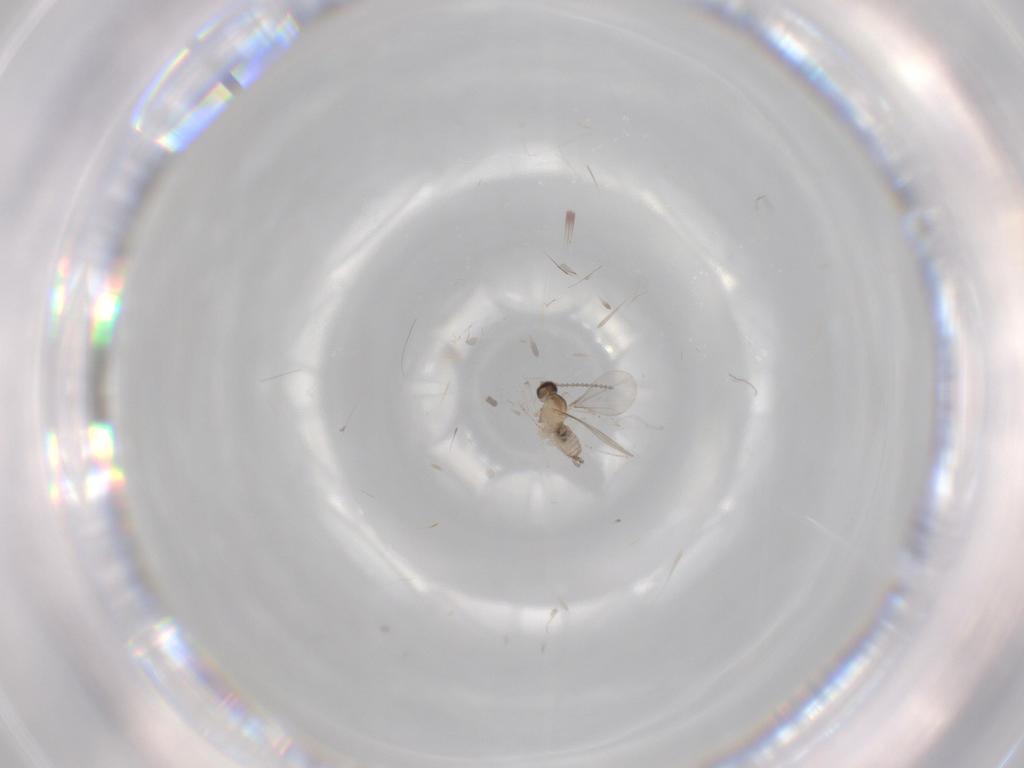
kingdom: Animalia
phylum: Arthropoda
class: Insecta
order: Diptera
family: Cecidomyiidae
